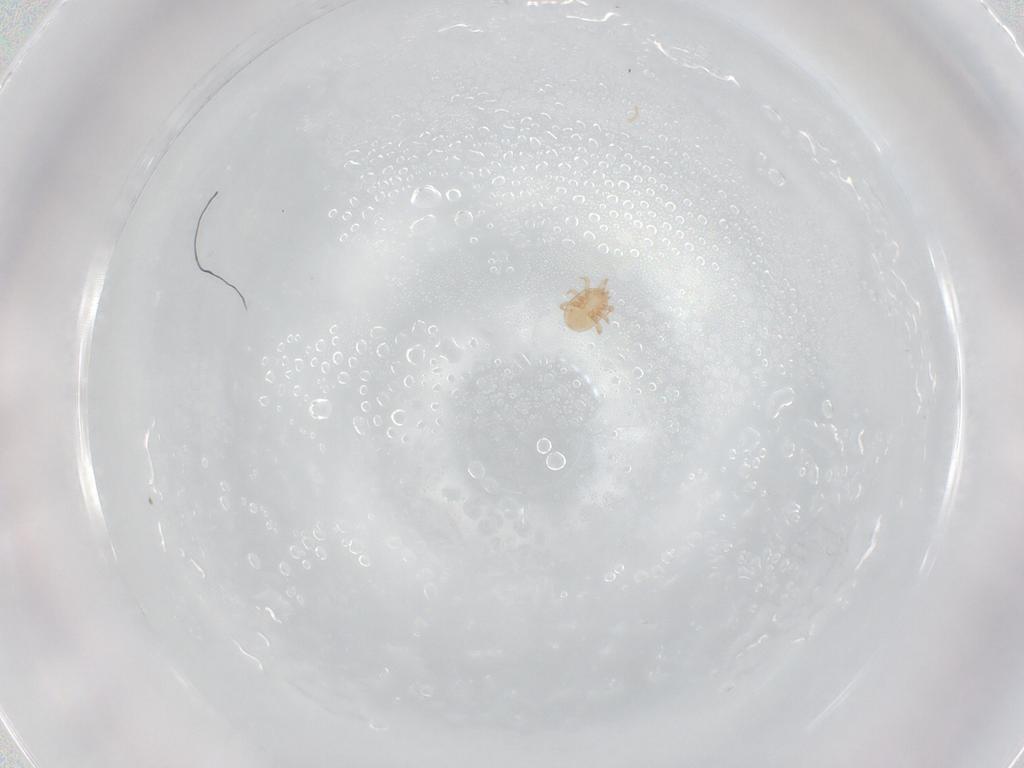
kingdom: Animalia
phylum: Arthropoda
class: Arachnida
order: Mesostigmata
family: Pachylaelapidae
